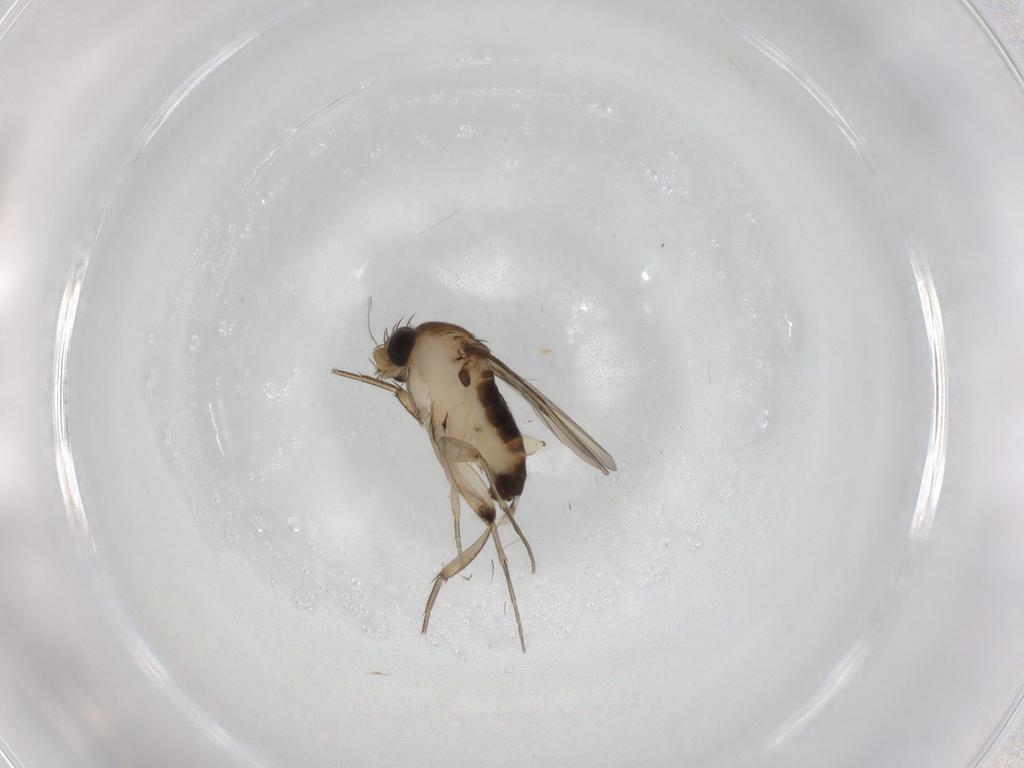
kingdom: Animalia
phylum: Arthropoda
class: Insecta
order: Diptera
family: Phoridae
